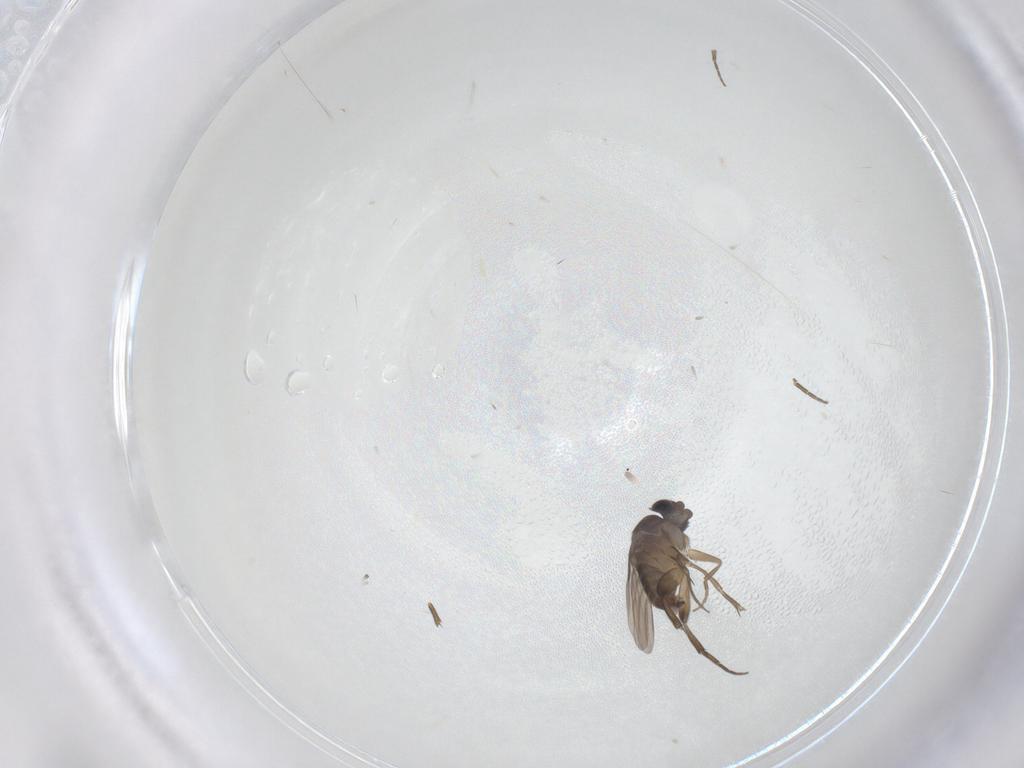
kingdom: Animalia
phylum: Arthropoda
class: Insecta
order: Diptera
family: Phoridae
